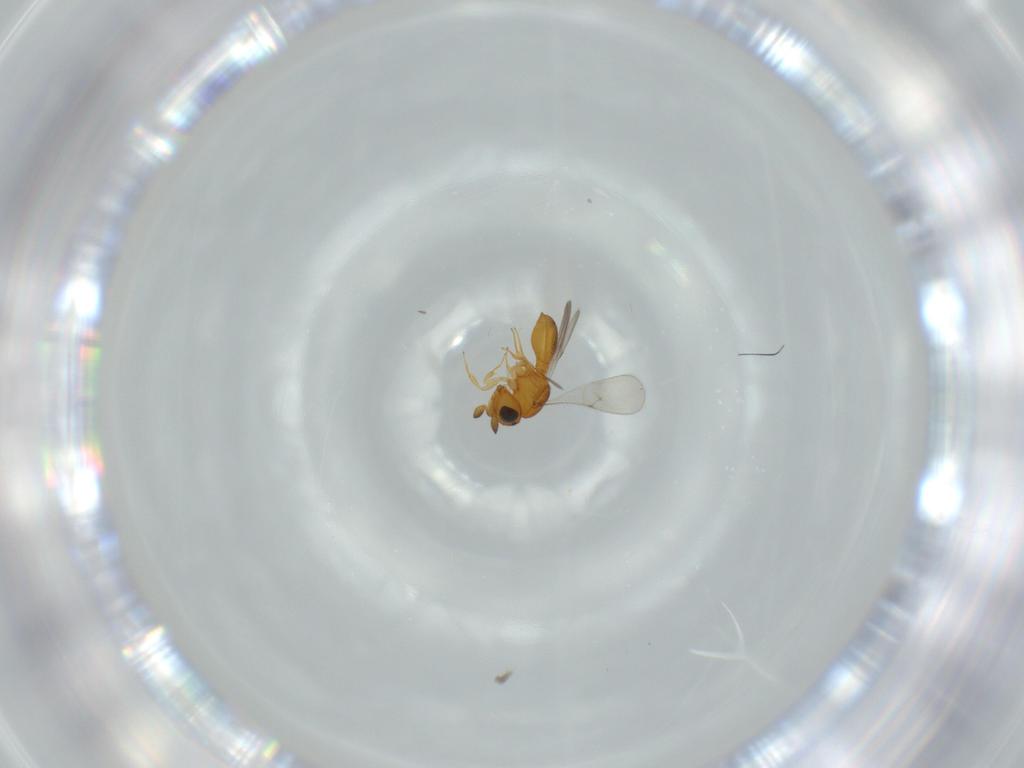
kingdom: Animalia
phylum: Arthropoda
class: Insecta
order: Hymenoptera
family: Scelionidae
